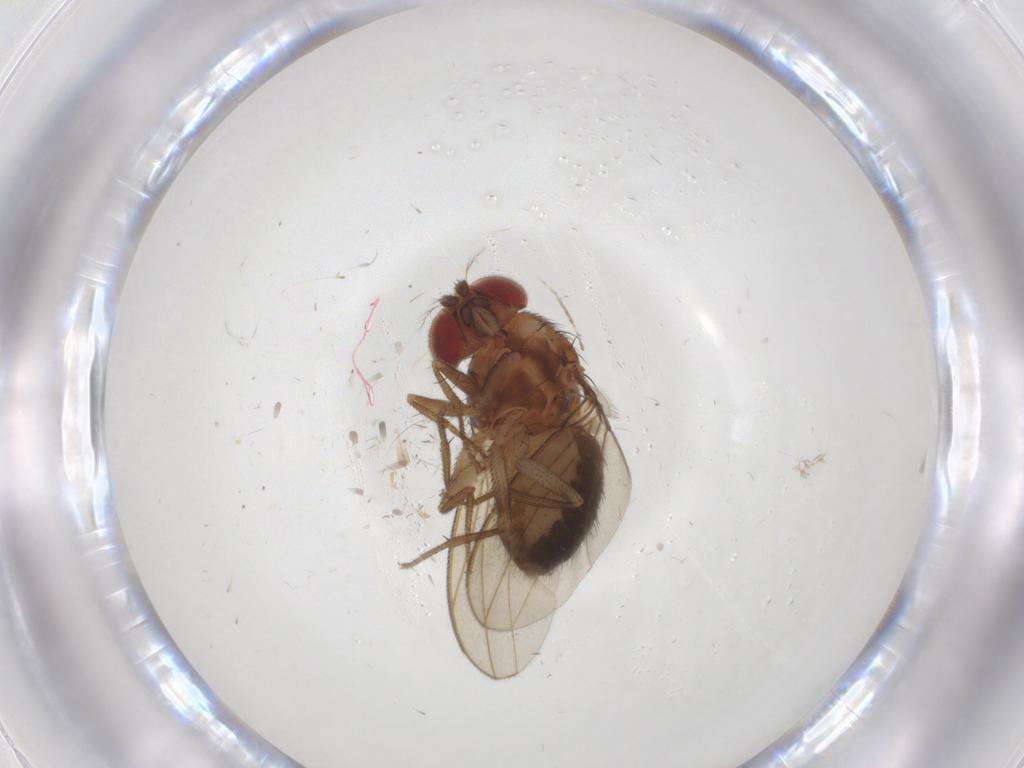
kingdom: Animalia
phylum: Arthropoda
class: Insecta
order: Diptera
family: Drosophilidae
